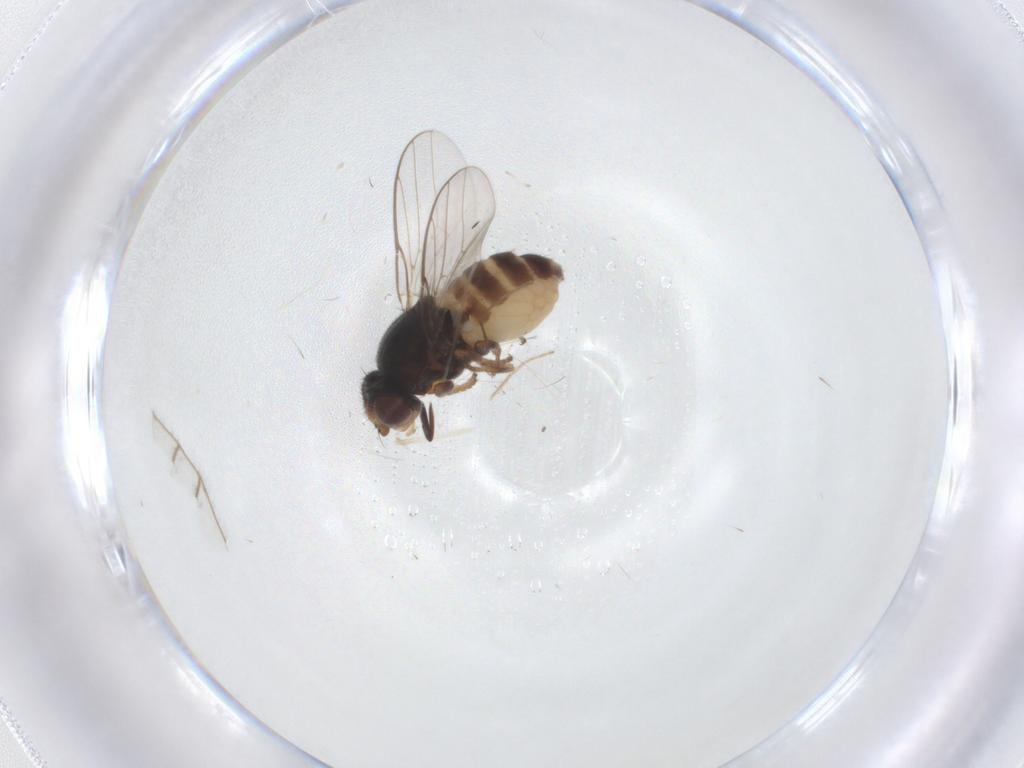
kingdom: Animalia
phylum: Arthropoda
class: Insecta
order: Diptera
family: Chloropidae
